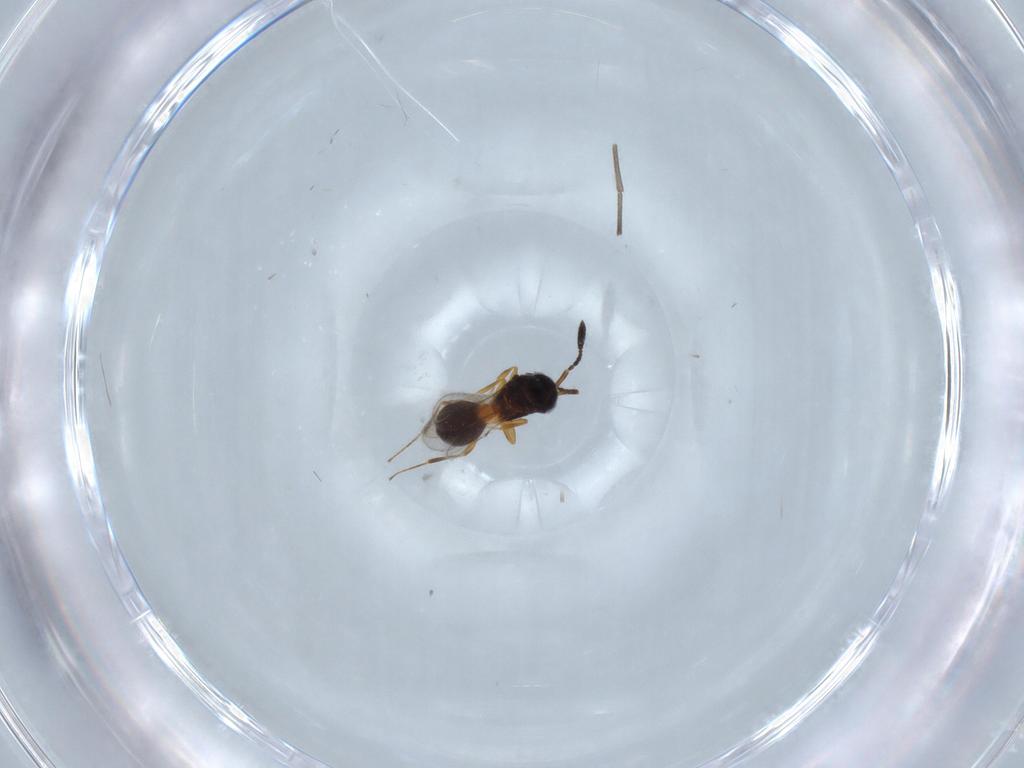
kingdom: Animalia
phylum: Arthropoda
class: Insecta
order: Hymenoptera
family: Scelionidae
